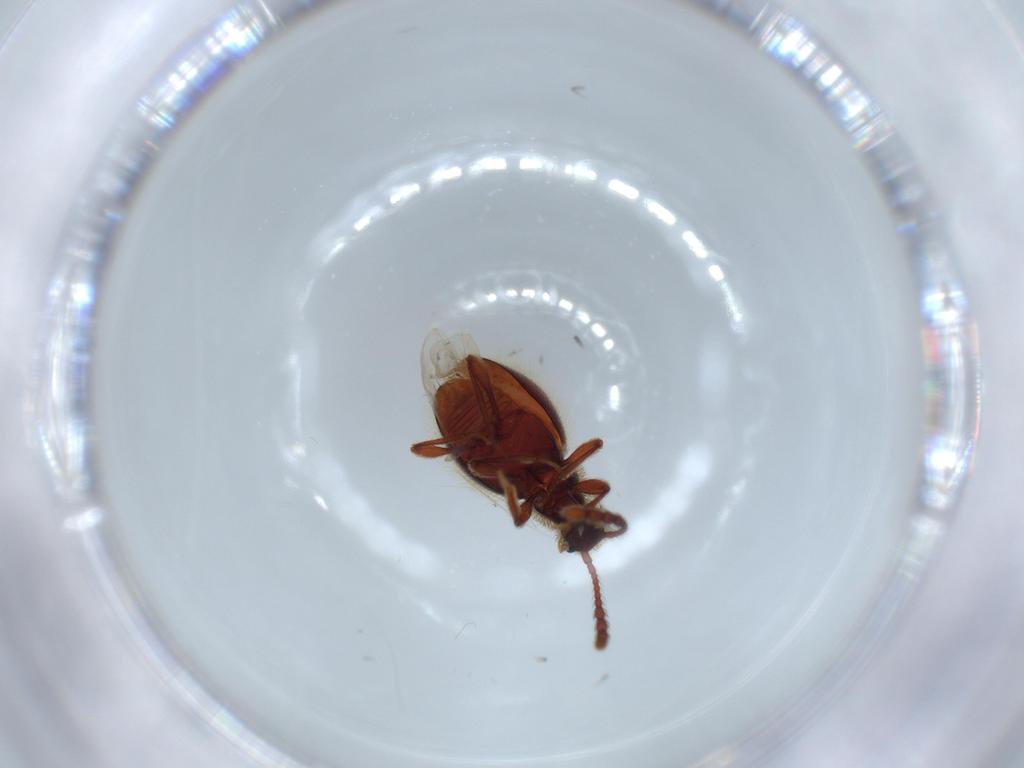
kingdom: Animalia
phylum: Arthropoda
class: Insecta
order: Coleoptera
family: Staphylinidae
